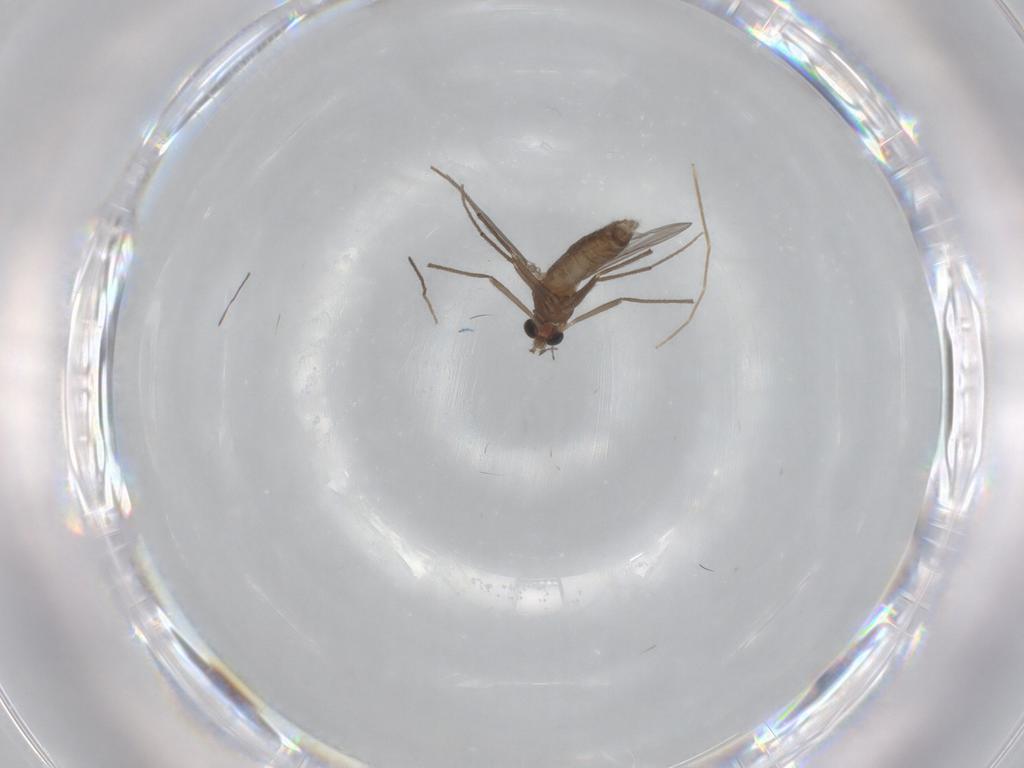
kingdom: Animalia
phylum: Arthropoda
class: Insecta
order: Diptera
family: Chironomidae
